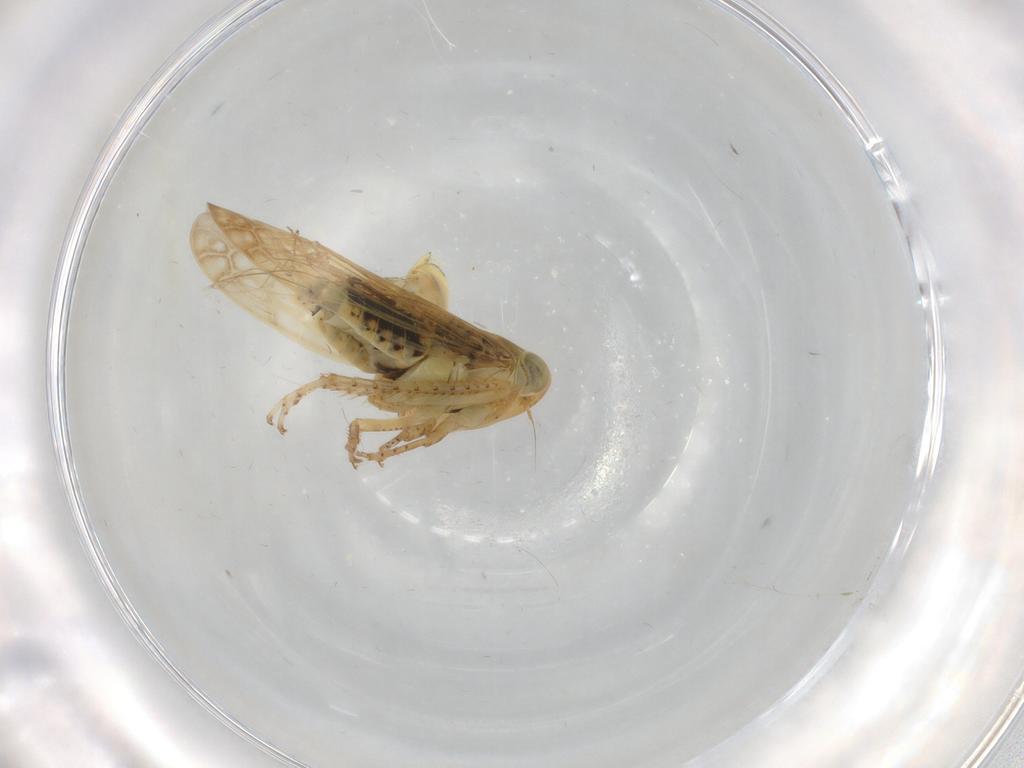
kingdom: Animalia
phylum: Arthropoda
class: Insecta
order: Hemiptera
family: Cicadellidae
